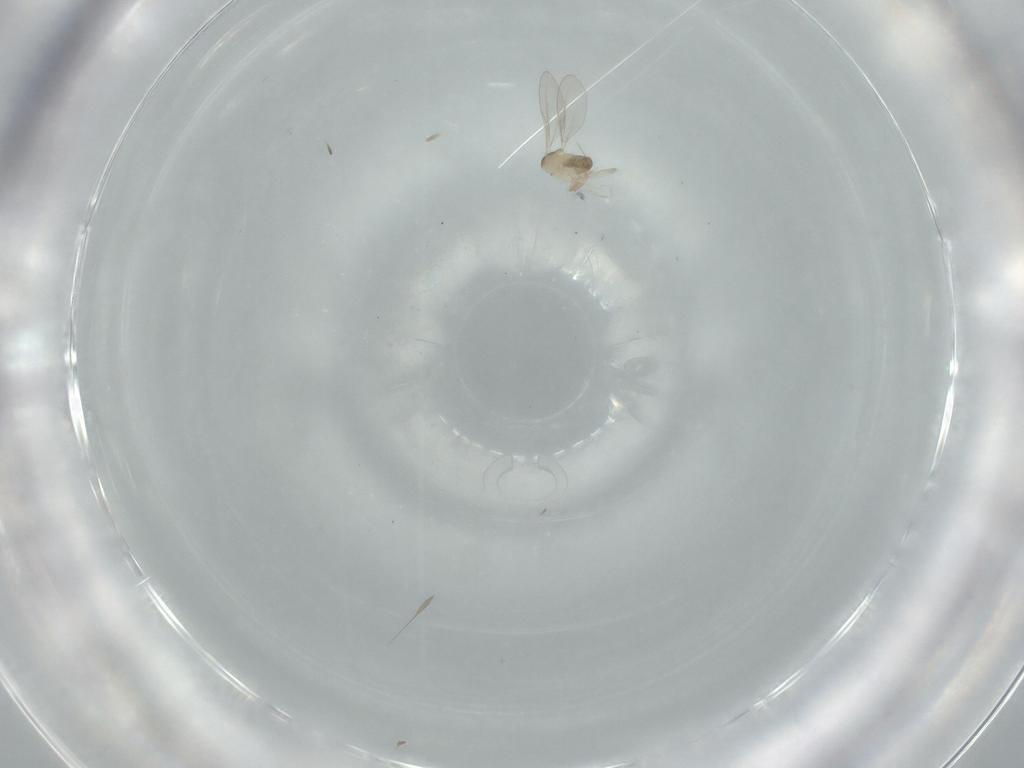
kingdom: Animalia
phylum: Arthropoda
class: Insecta
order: Diptera
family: Cecidomyiidae
